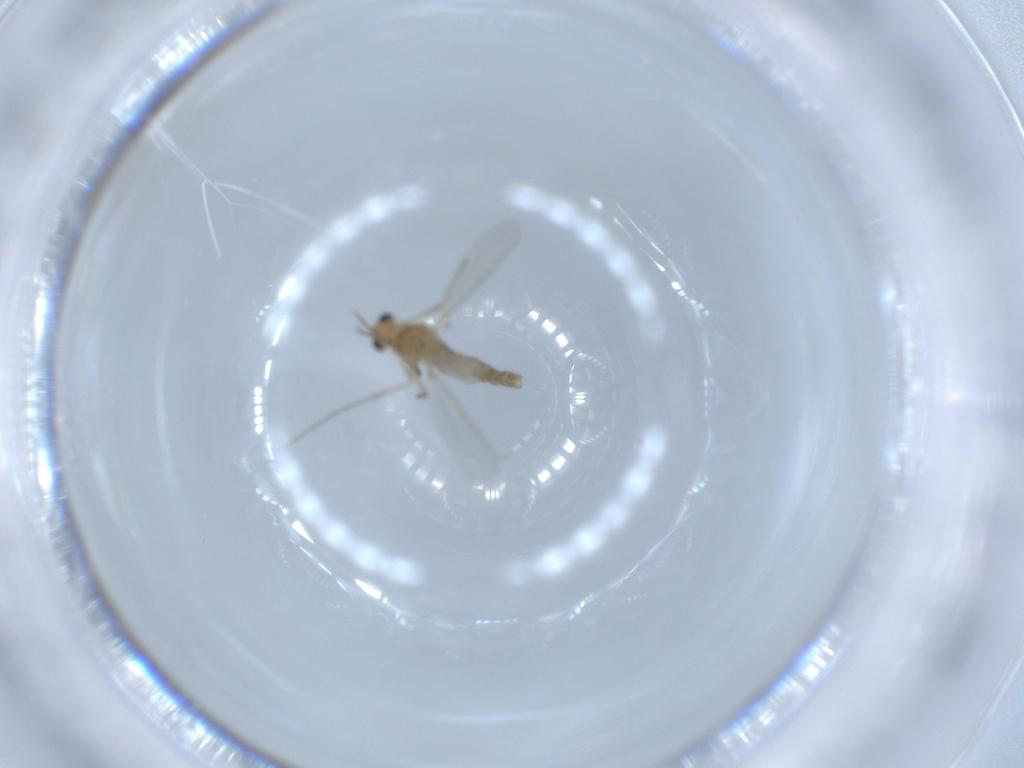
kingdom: Animalia
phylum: Arthropoda
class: Insecta
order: Diptera
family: Chironomidae
